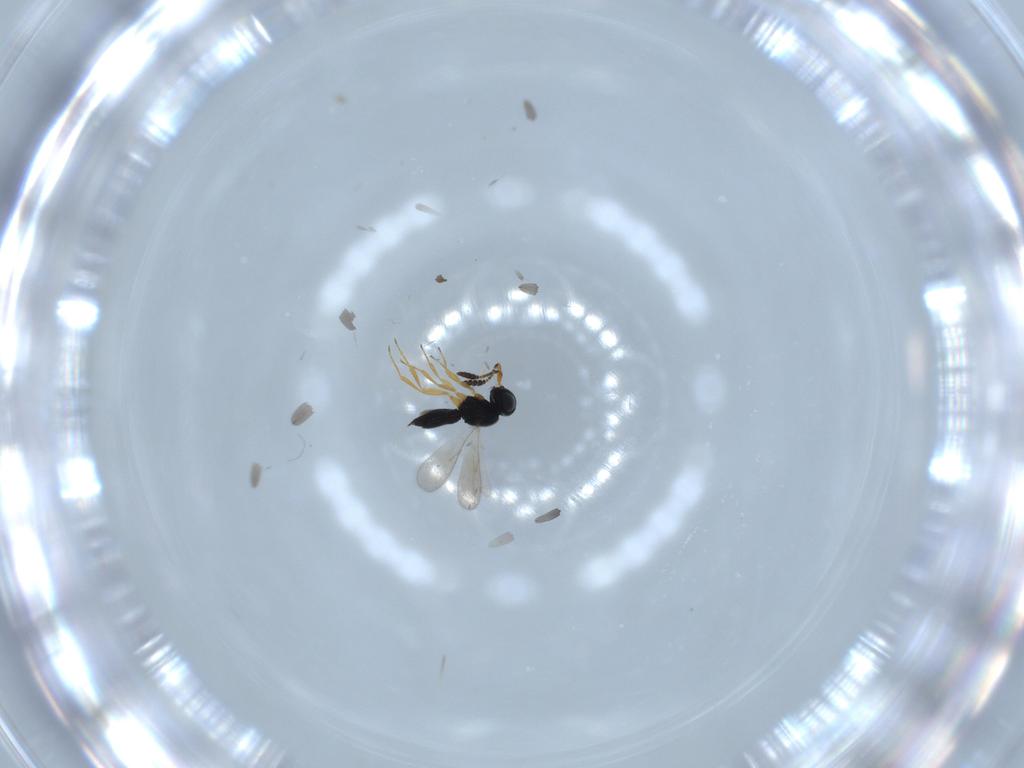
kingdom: Animalia
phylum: Arthropoda
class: Insecta
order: Hymenoptera
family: Scelionidae
